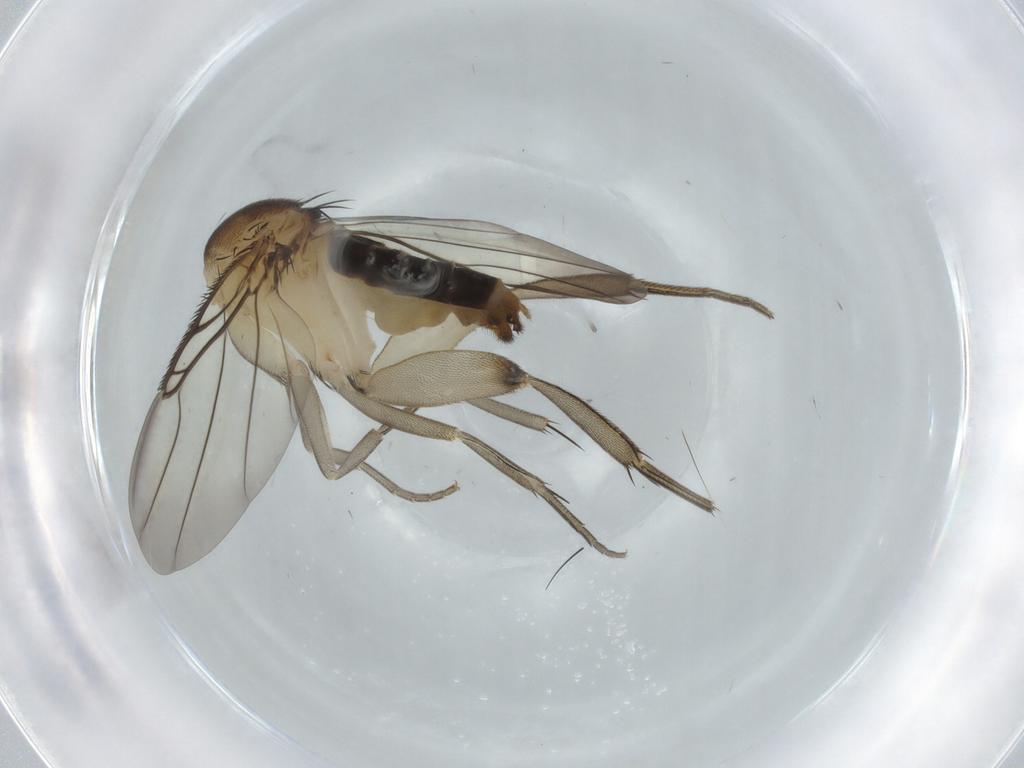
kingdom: Animalia
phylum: Arthropoda
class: Insecta
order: Diptera
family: Phoridae
